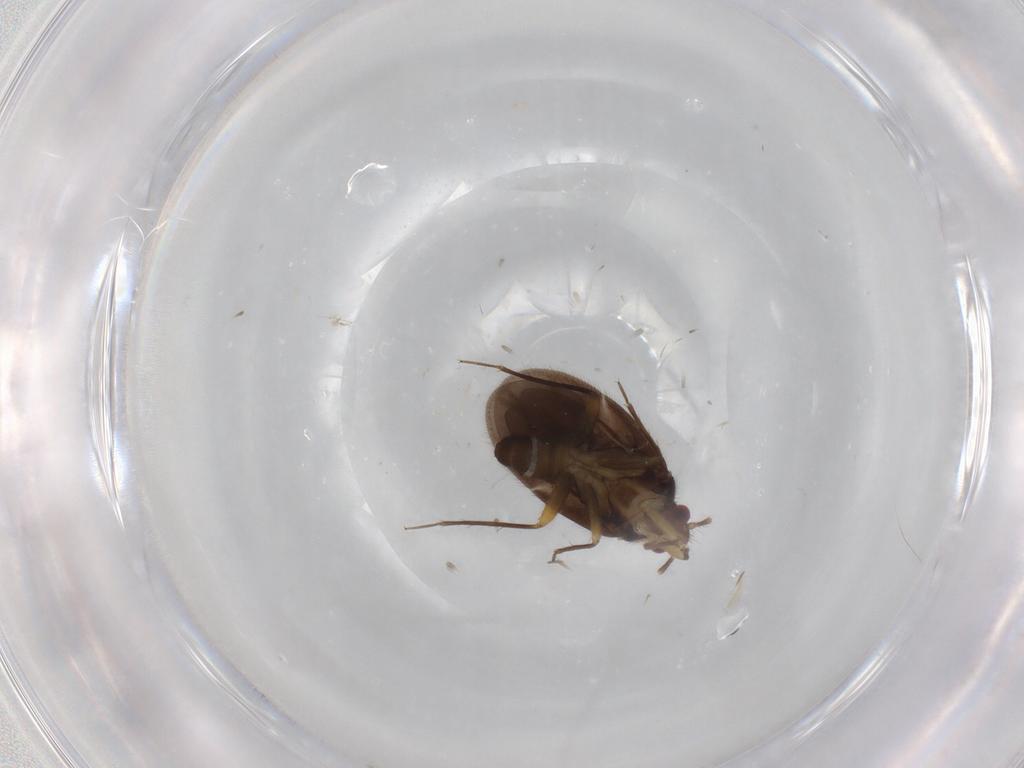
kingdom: Animalia
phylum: Arthropoda
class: Insecta
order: Hemiptera
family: Ceratocombidae
